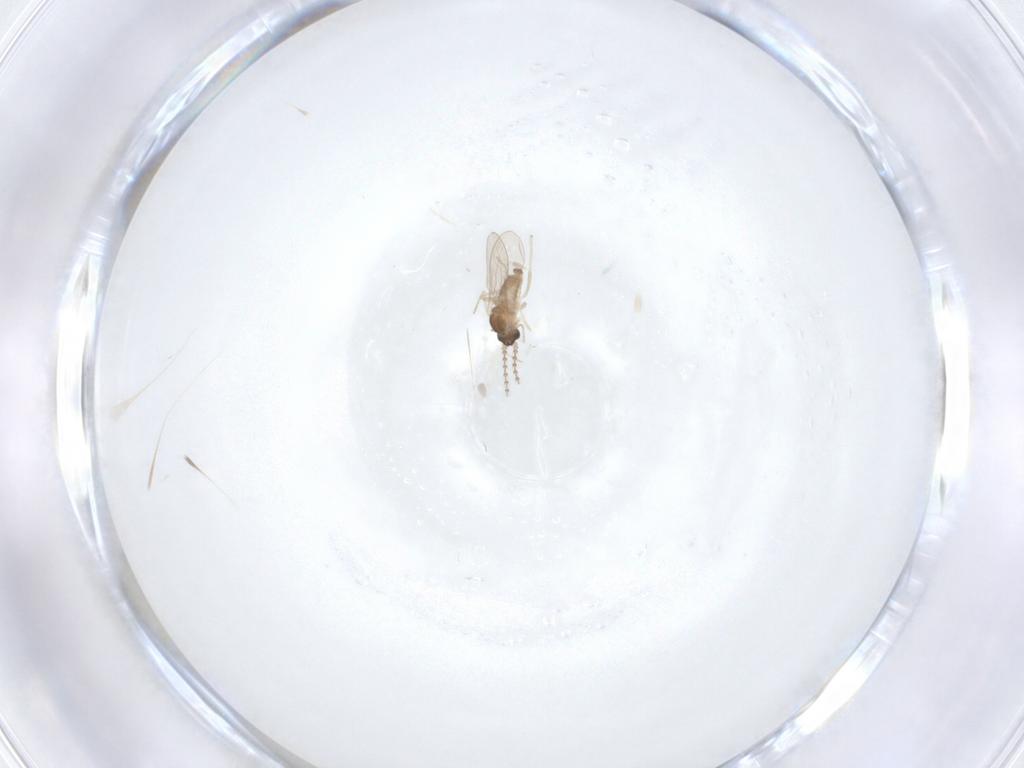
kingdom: Animalia
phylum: Arthropoda
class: Insecta
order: Diptera
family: Cecidomyiidae
